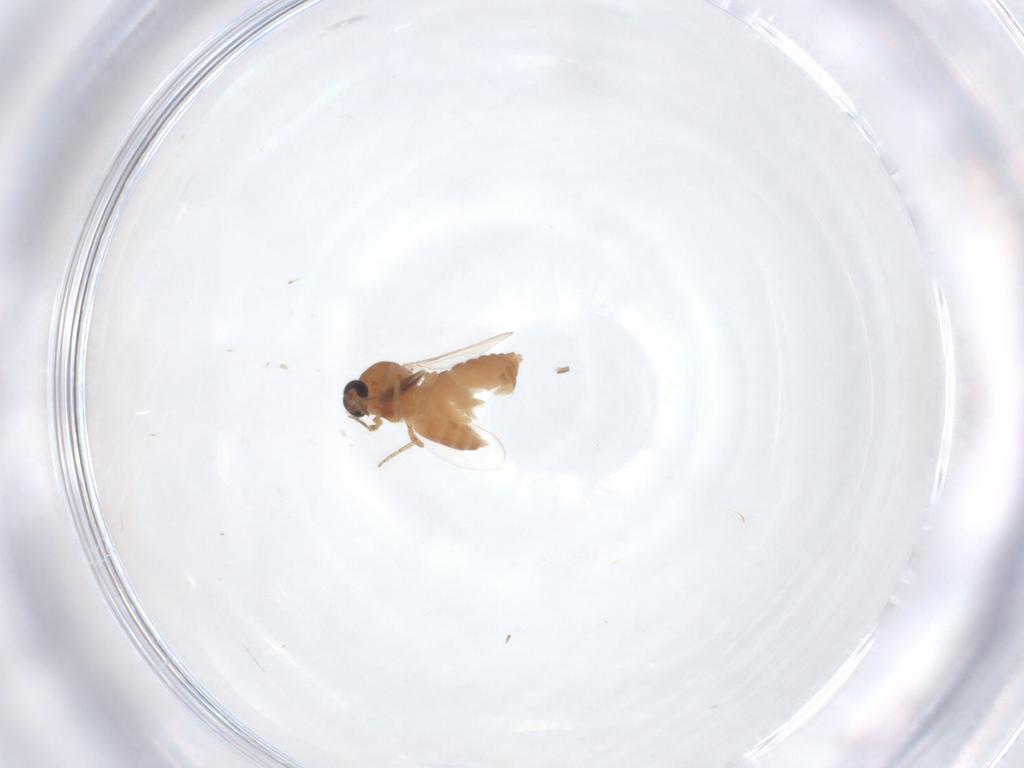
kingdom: Animalia
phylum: Arthropoda
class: Insecta
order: Diptera
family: Ceratopogonidae
